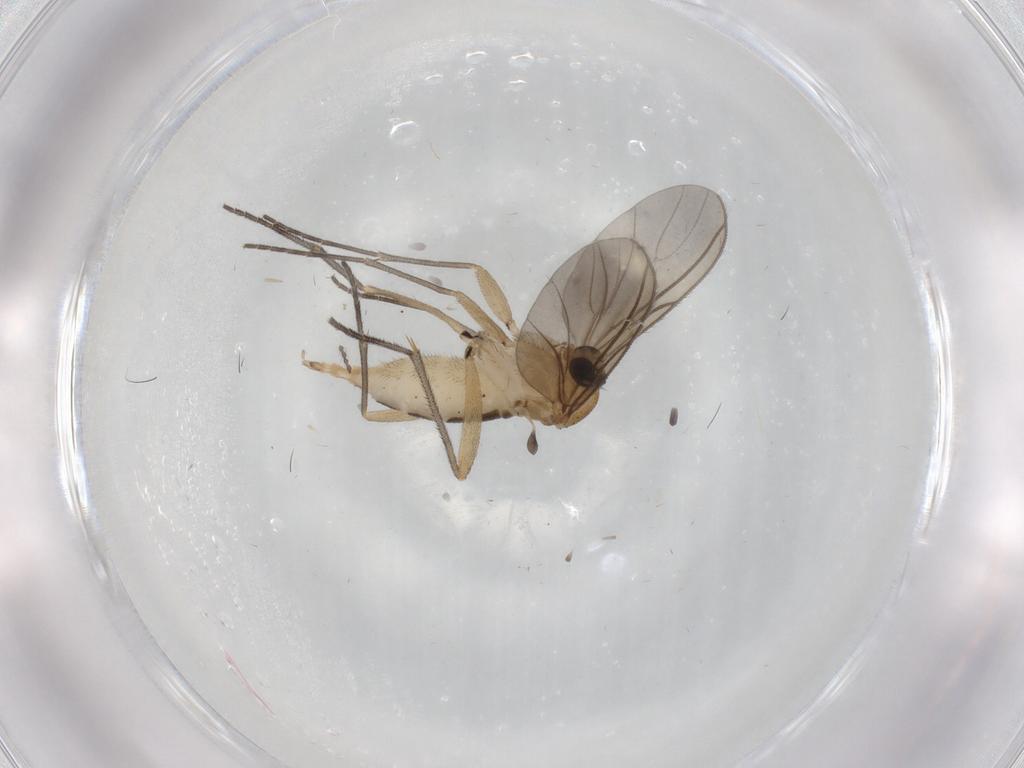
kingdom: Animalia
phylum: Arthropoda
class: Insecta
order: Diptera
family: Sciaridae
